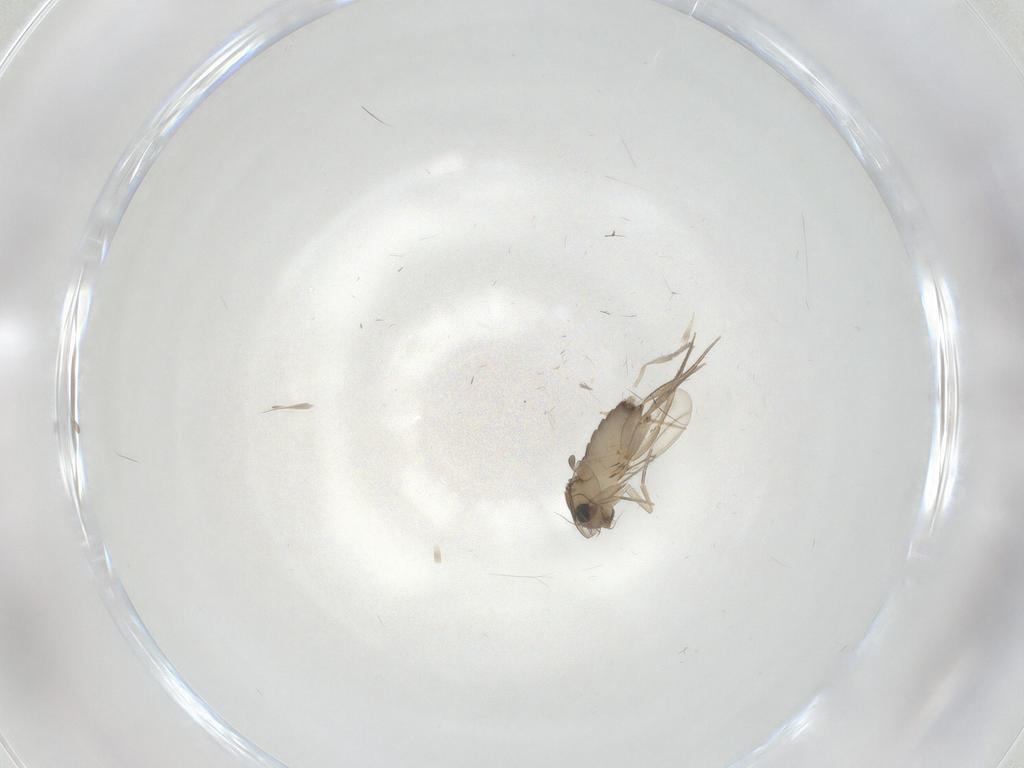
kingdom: Animalia
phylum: Arthropoda
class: Insecta
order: Diptera
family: Phoridae
